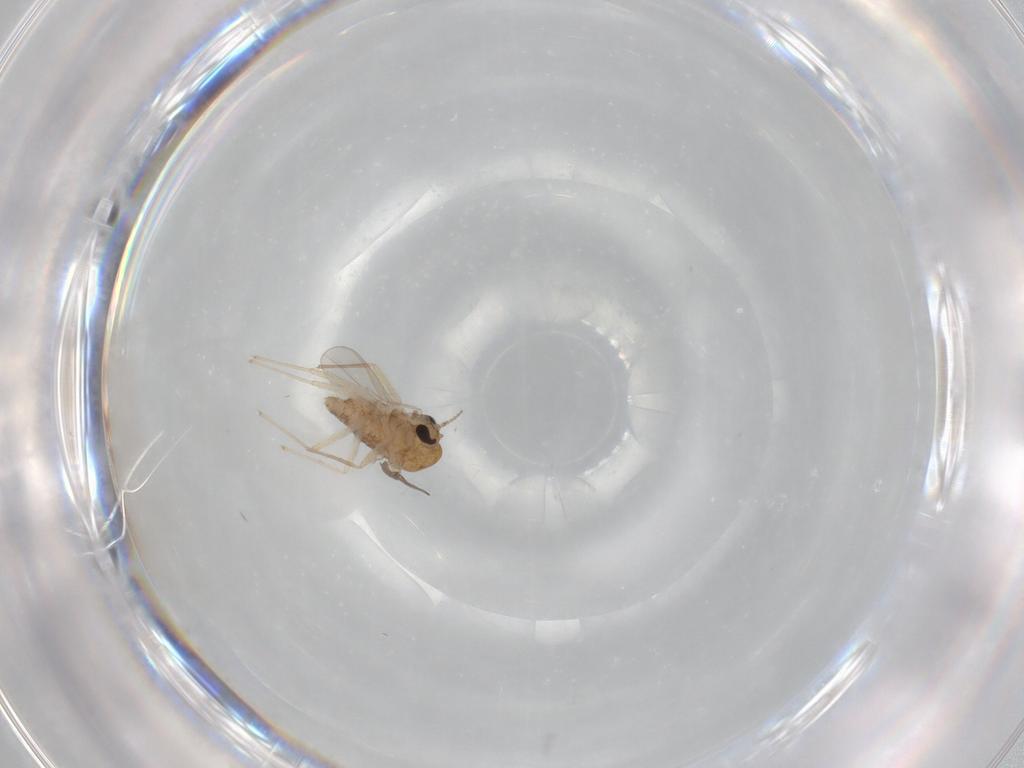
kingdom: Animalia
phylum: Arthropoda
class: Insecta
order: Diptera
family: Chironomidae
